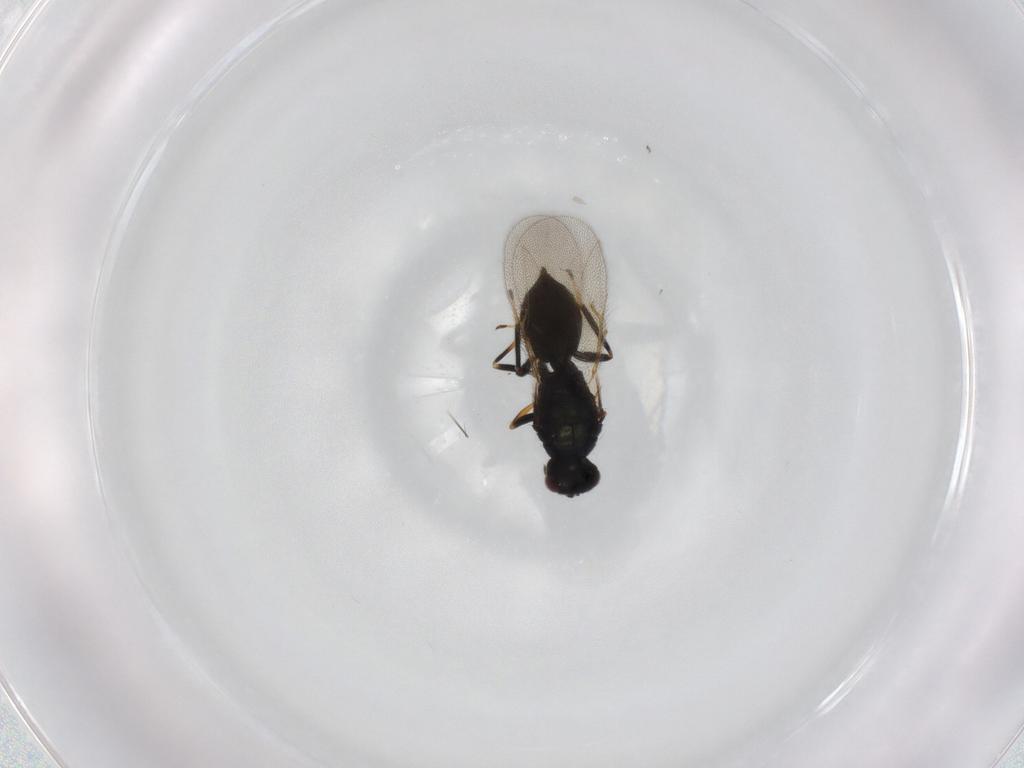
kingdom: Animalia
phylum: Arthropoda
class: Insecta
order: Hymenoptera
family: Eulophidae
